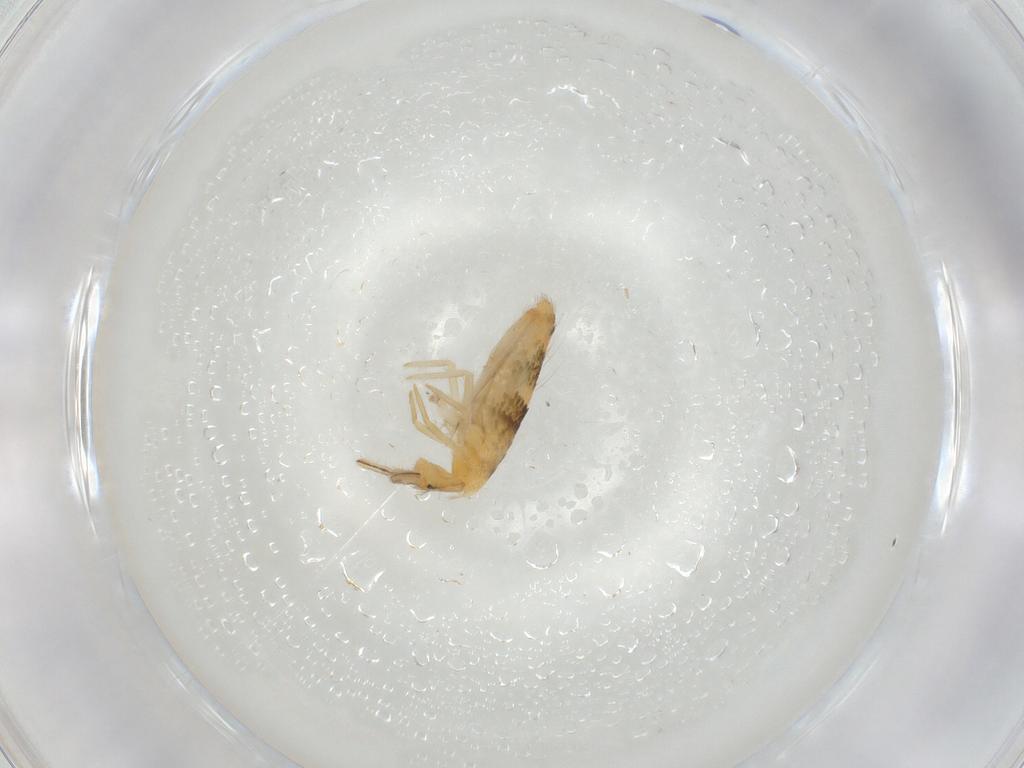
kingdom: Animalia
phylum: Arthropoda
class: Collembola
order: Entomobryomorpha
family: Entomobryidae
